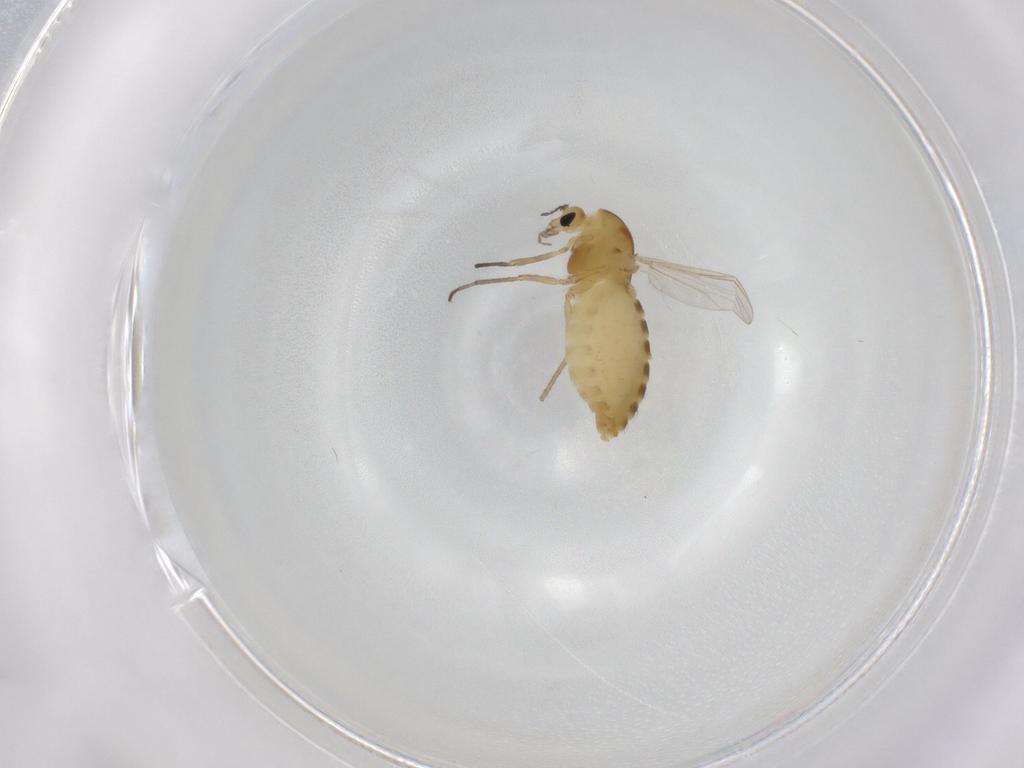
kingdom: Animalia
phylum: Arthropoda
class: Insecta
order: Diptera
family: Chironomidae
